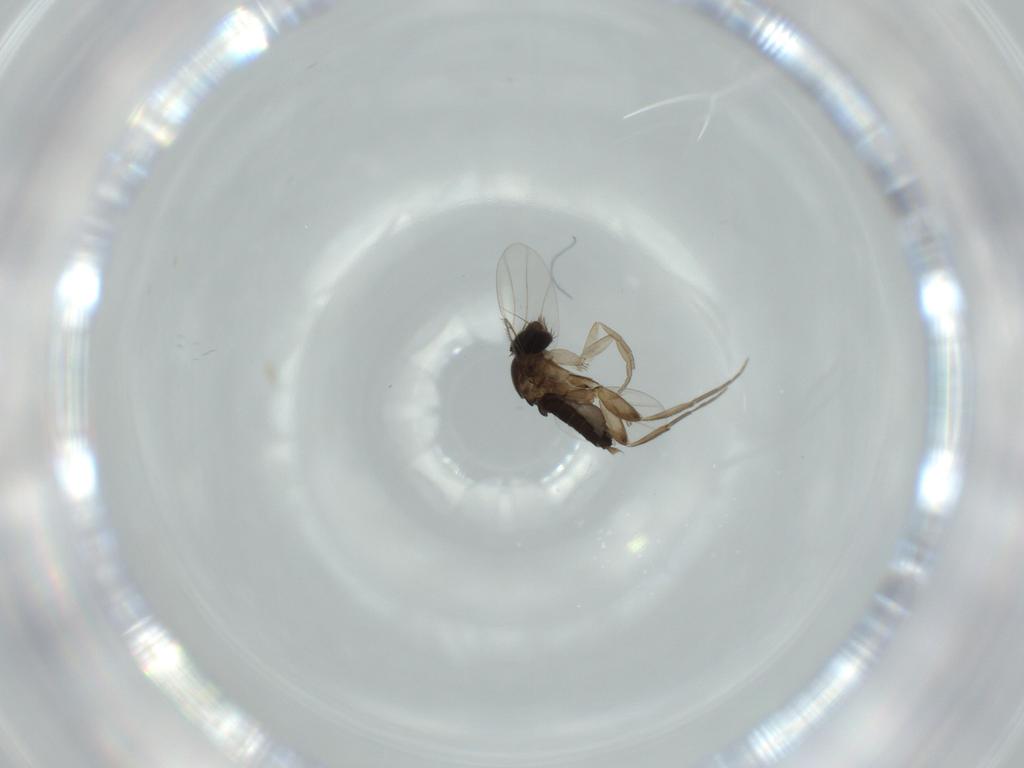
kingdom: Animalia
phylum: Arthropoda
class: Insecta
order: Diptera
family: Phoridae
